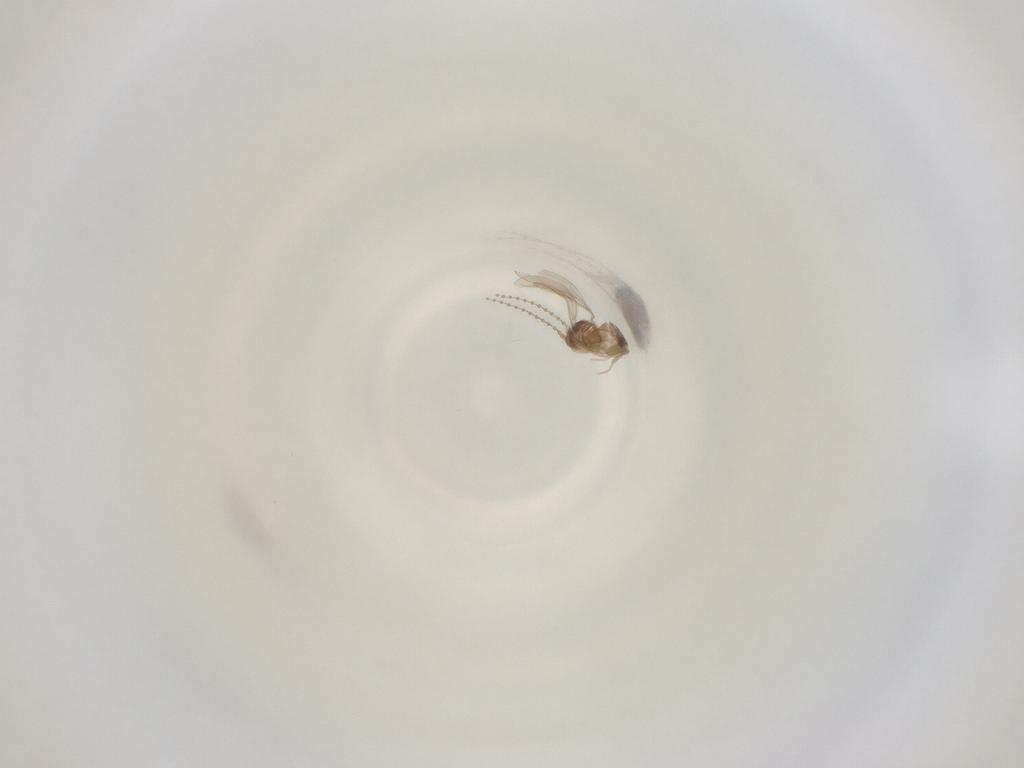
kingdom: Animalia
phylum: Arthropoda
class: Insecta
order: Diptera
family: Cecidomyiidae
